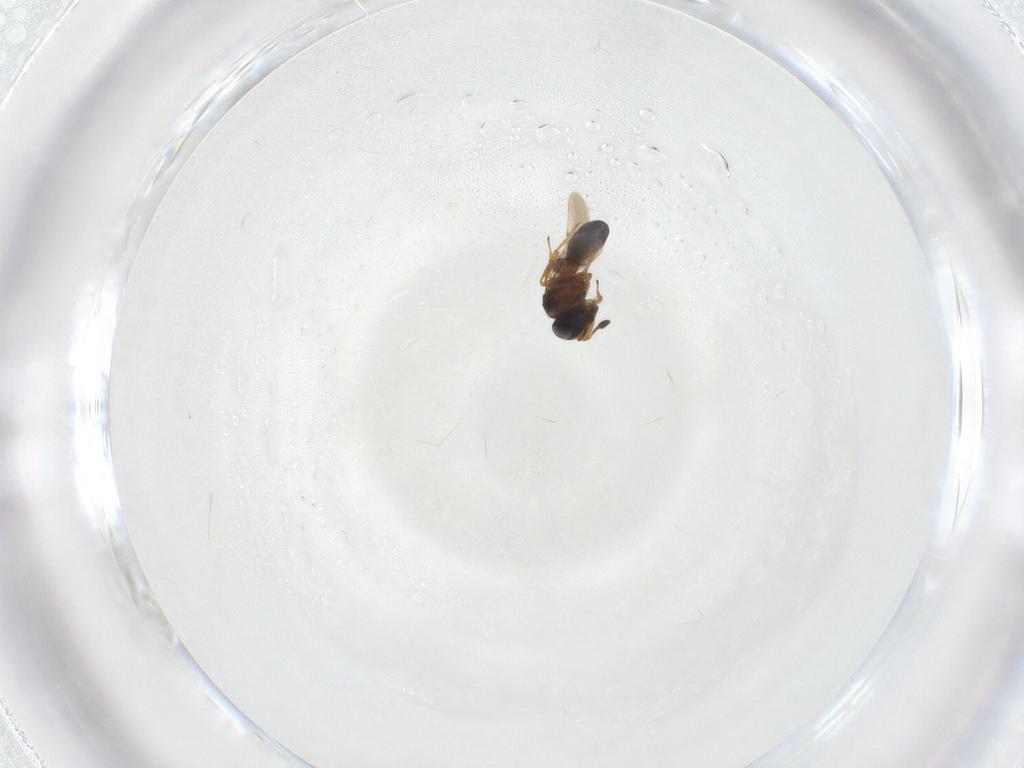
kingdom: Animalia
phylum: Arthropoda
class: Insecta
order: Hymenoptera
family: Scelionidae
